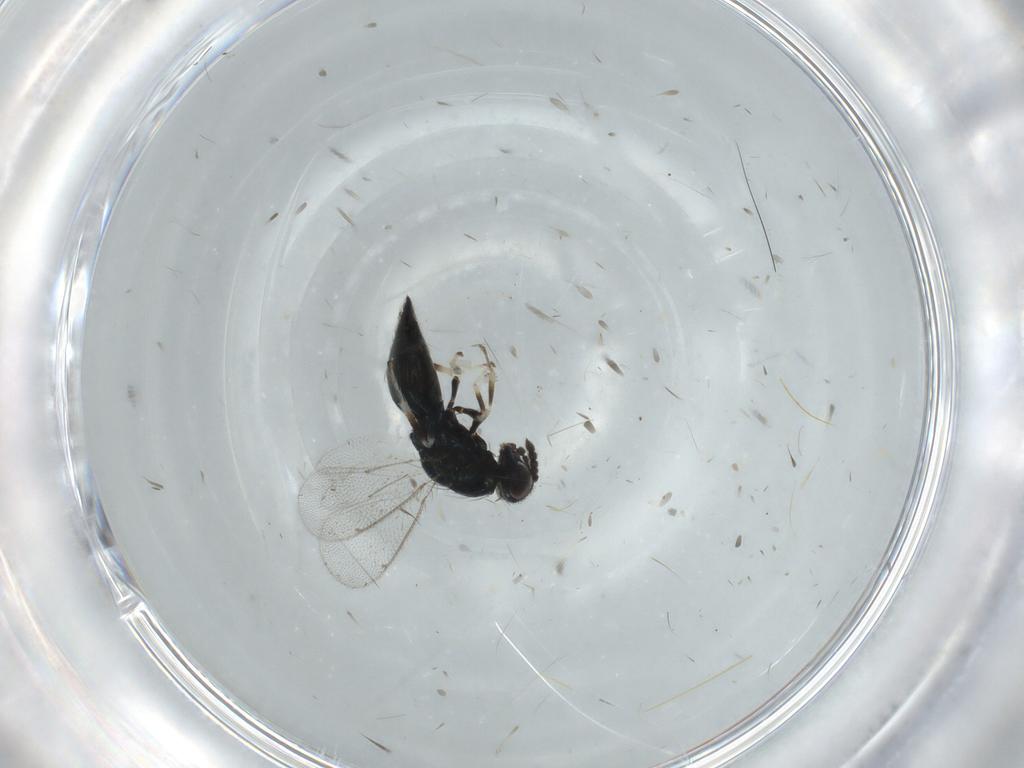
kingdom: Animalia
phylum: Arthropoda
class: Insecta
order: Hymenoptera
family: Eulophidae
